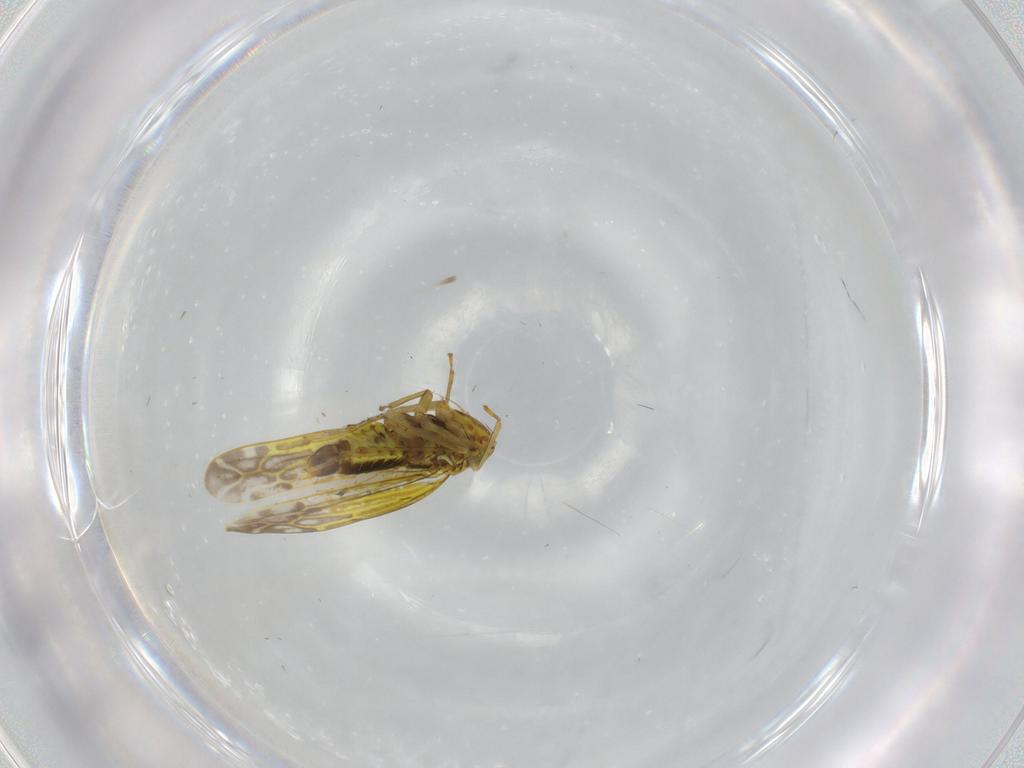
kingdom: Animalia
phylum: Arthropoda
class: Insecta
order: Hemiptera
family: Cicadellidae
